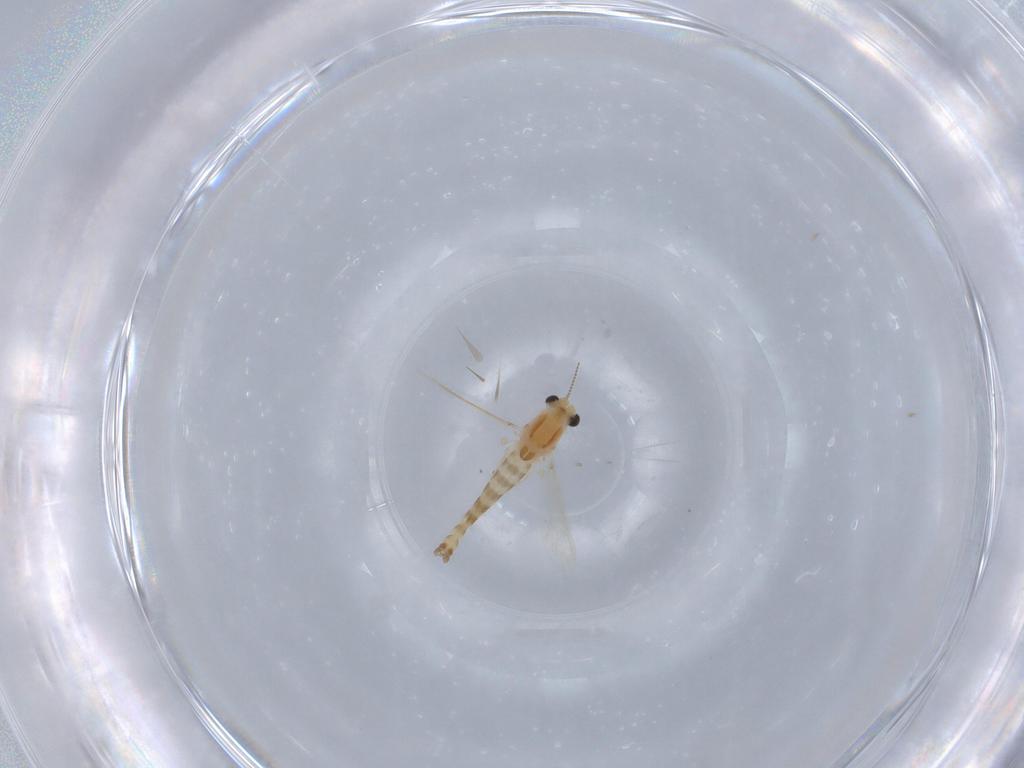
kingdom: Animalia
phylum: Arthropoda
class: Insecta
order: Diptera
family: Chironomidae
